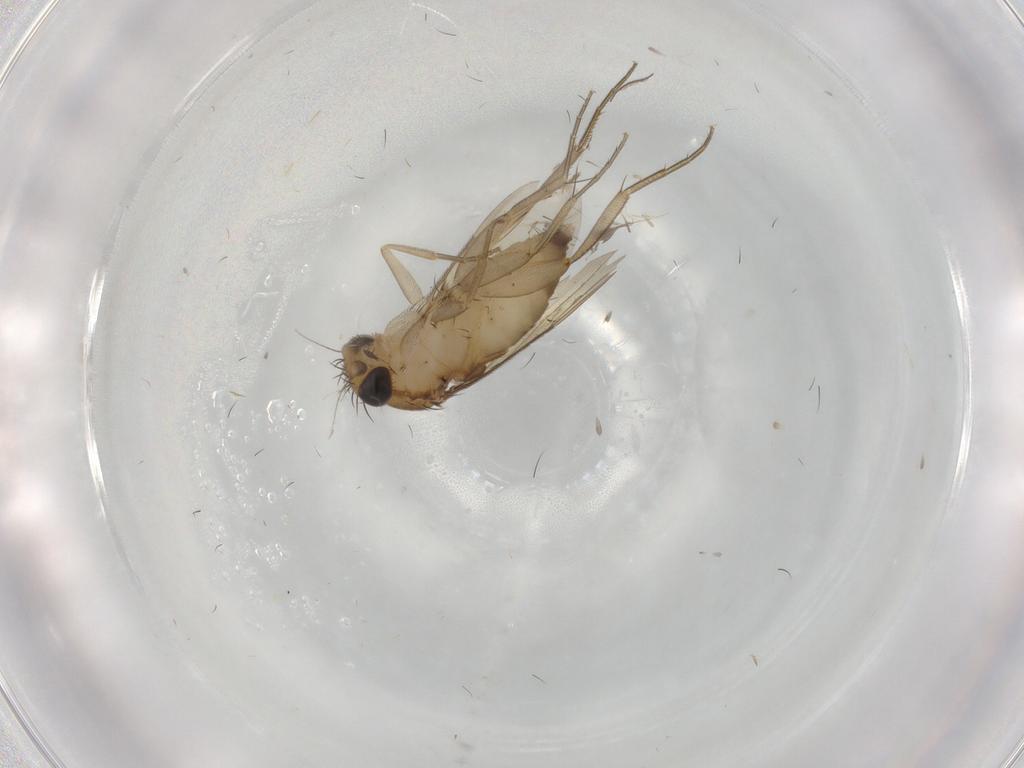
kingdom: Animalia
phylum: Arthropoda
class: Insecta
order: Diptera
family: Phoridae
